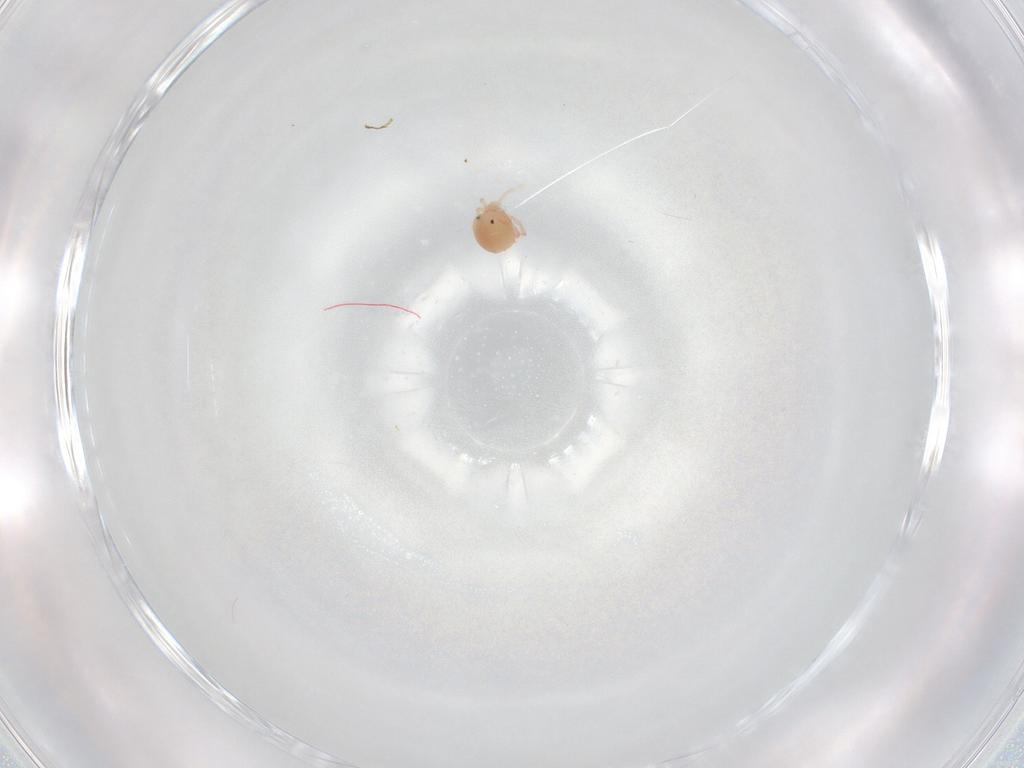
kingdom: Animalia
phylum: Arthropoda
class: Arachnida
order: Trombidiformes
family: Lebertiidae
